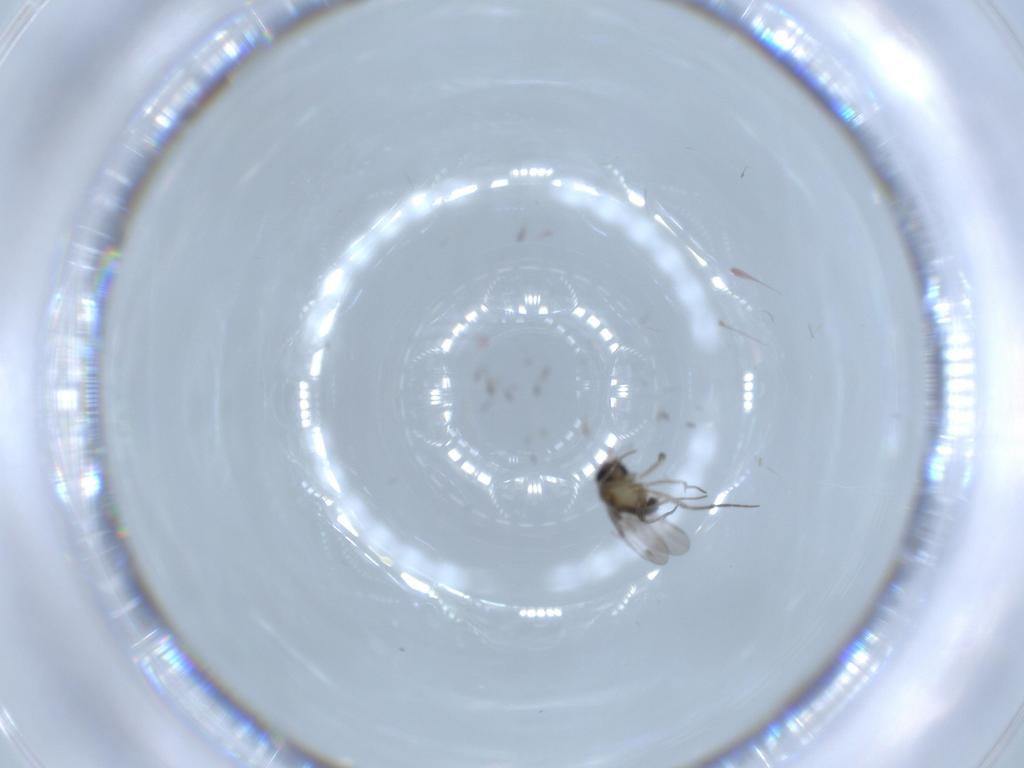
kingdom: Animalia
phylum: Arthropoda
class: Insecta
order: Diptera
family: Phoridae
